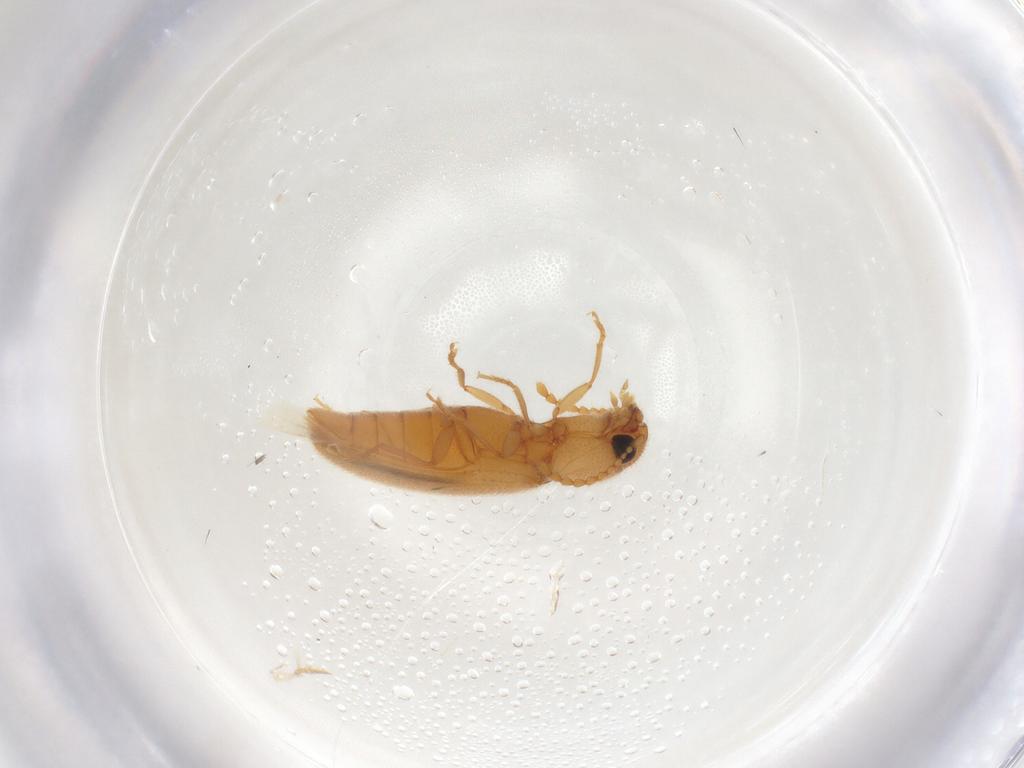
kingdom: Animalia
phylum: Arthropoda
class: Insecta
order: Coleoptera
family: Elateridae
